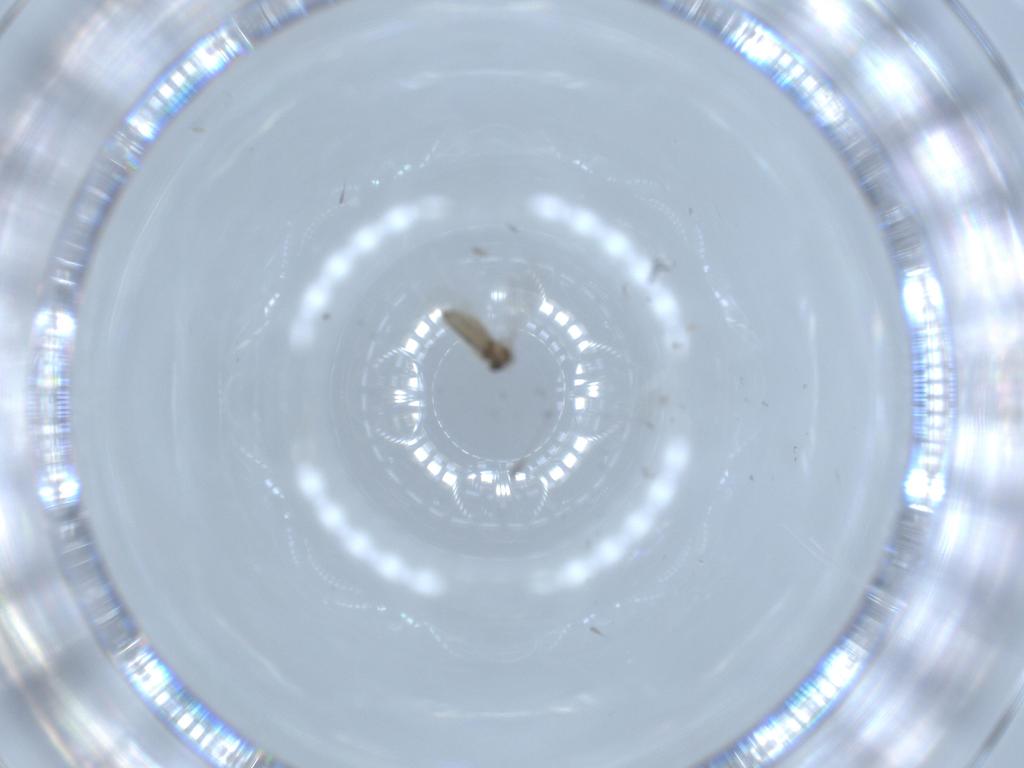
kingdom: Animalia
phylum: Arthropoda
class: Insecta
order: Diptera
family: Cecidomyiidae
